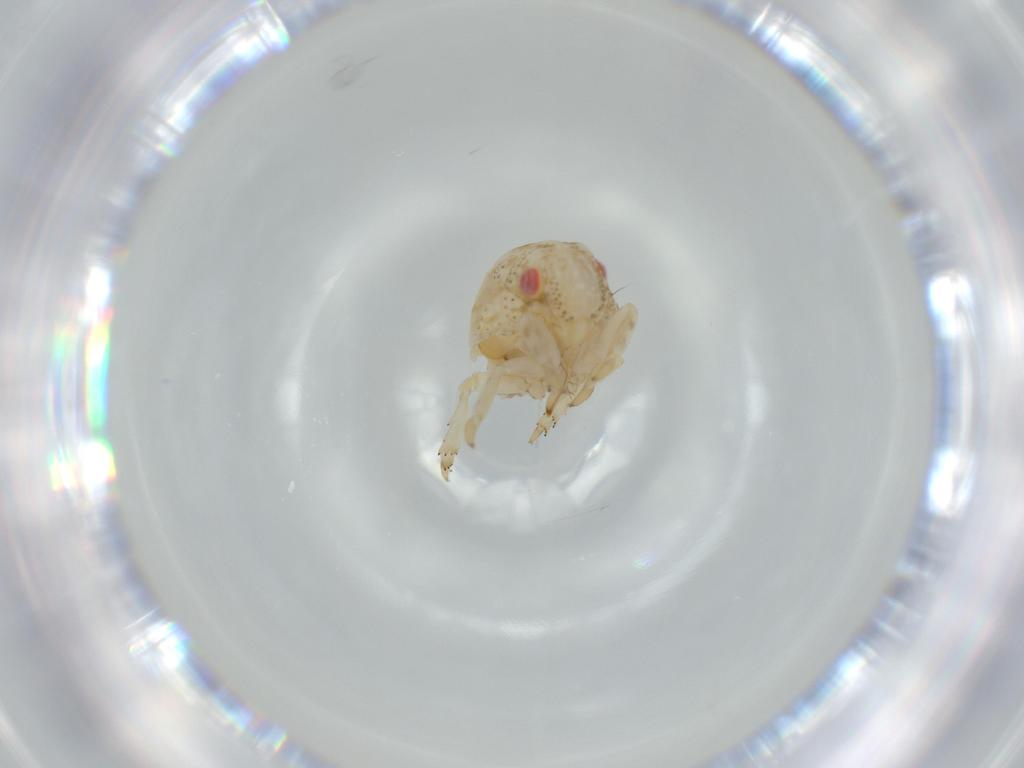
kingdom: Animalia
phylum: Arthropoda
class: Insecta
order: Hemiptera
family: Acanaloniidae
